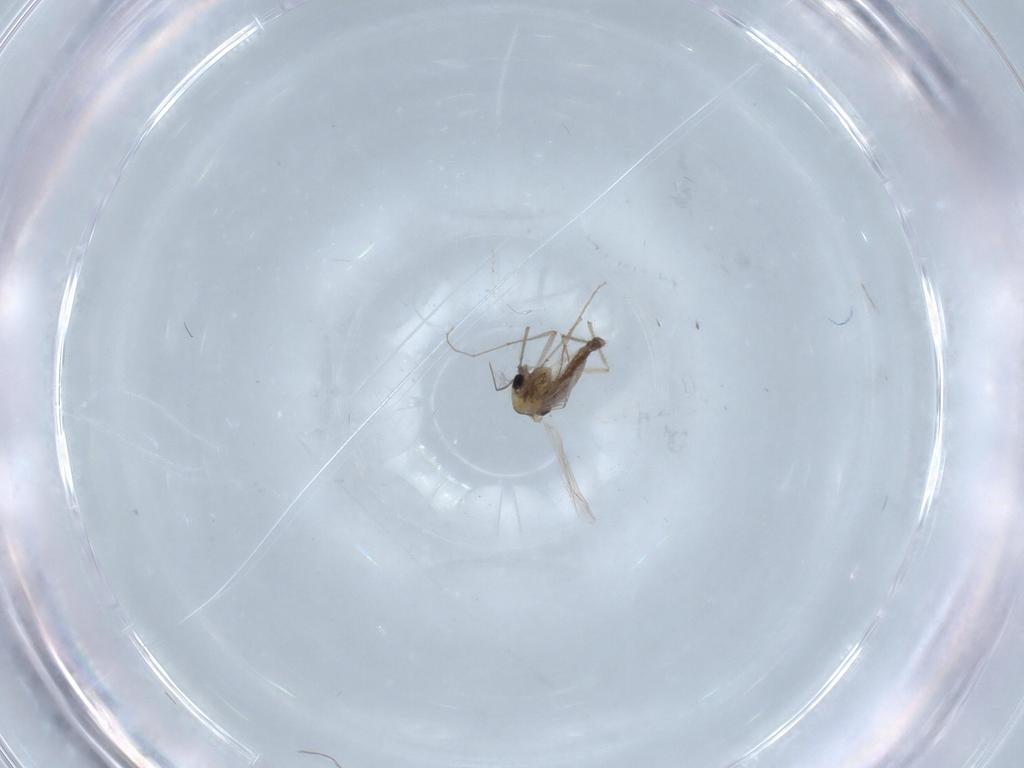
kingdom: Animalia
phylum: Arthropoda
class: Insecta
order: Diptera
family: Chironomidae
